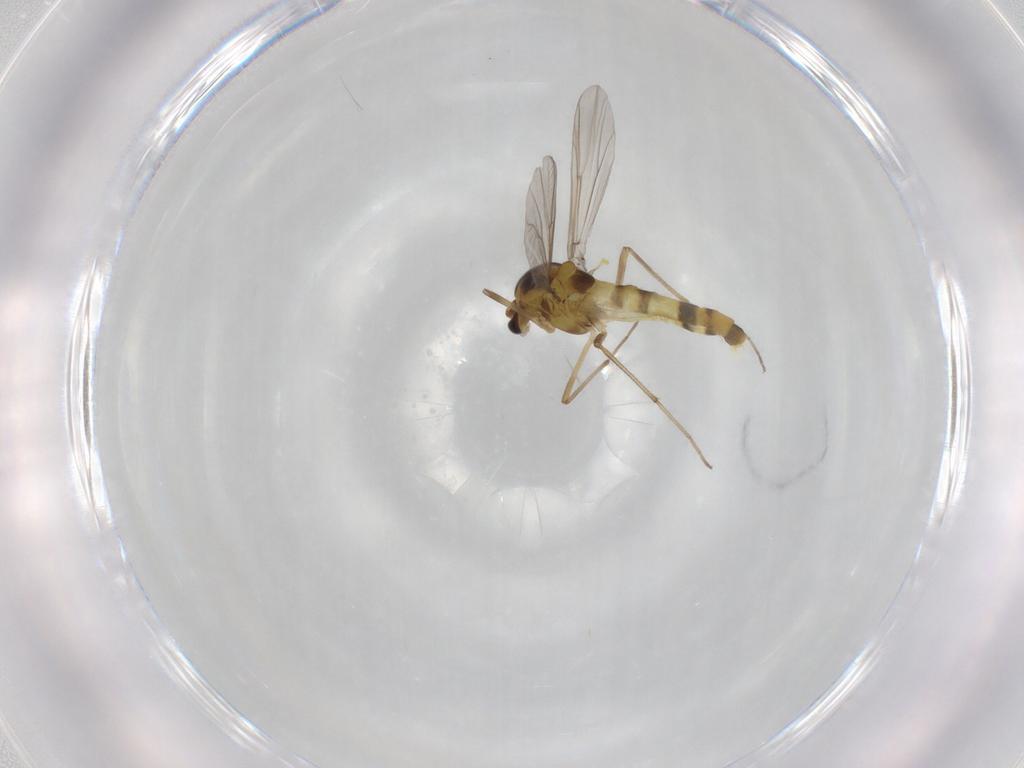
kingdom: Animalia
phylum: Arthropoda
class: Insecta
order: Diptera
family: Chironomidae
